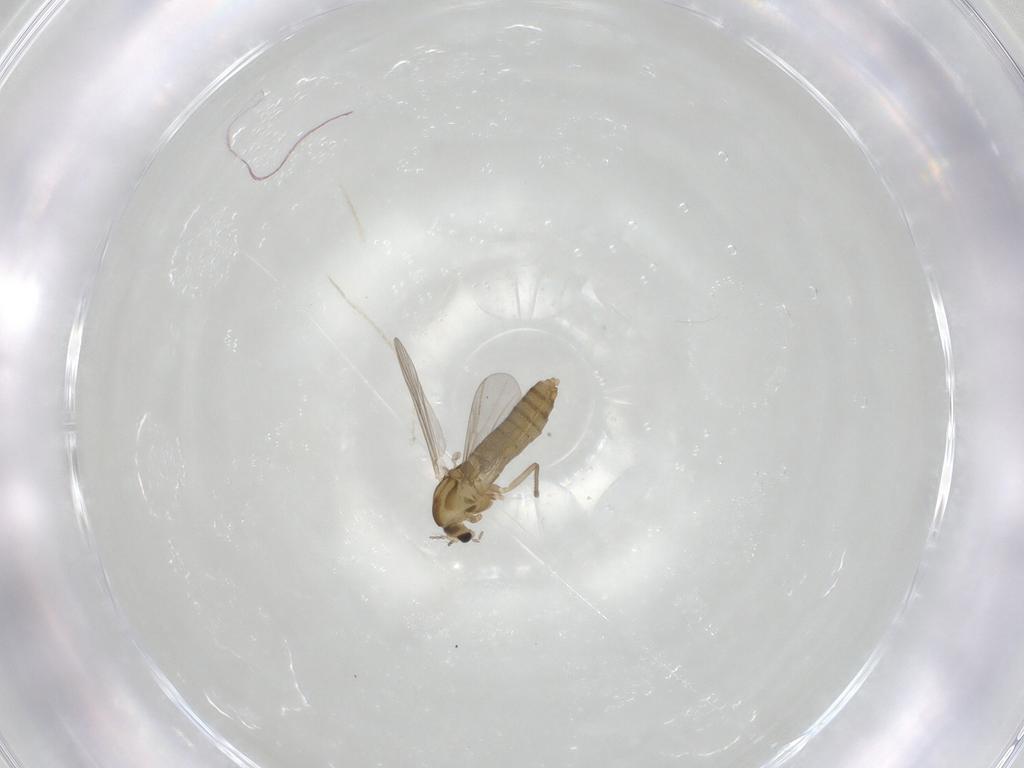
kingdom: Animalia
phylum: Arthropoda
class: Insecta
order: Diptera
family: Chironomidae
